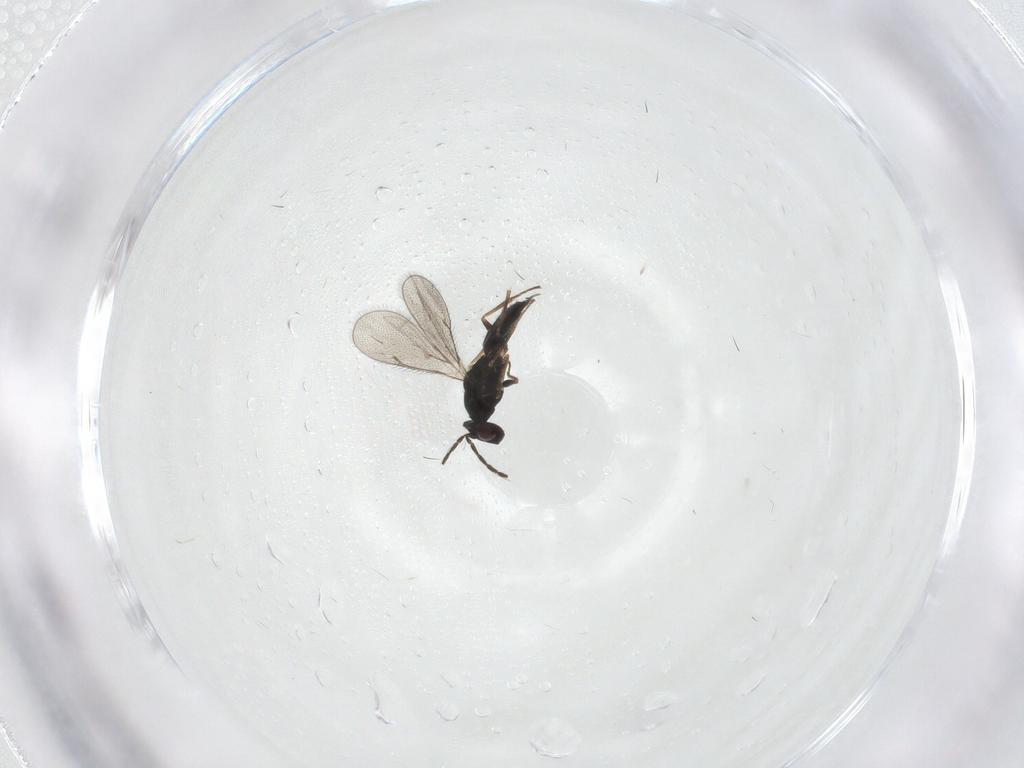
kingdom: Animalia
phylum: Arthropoda
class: Insecta
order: Hymenoptera
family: Eulophidae
